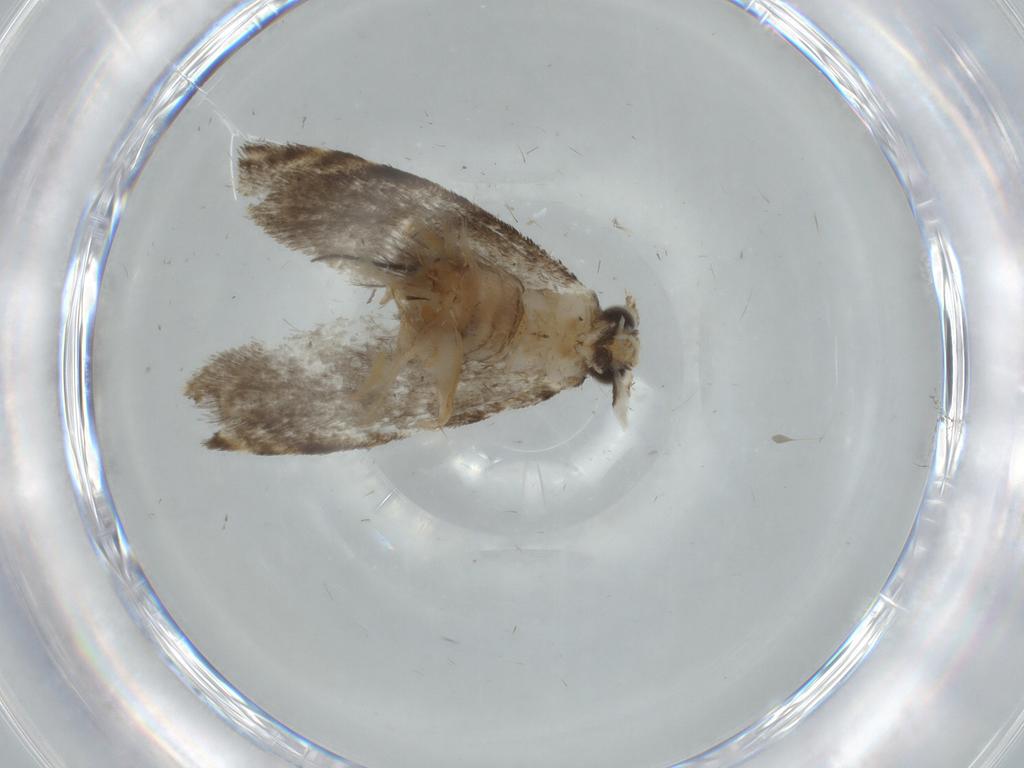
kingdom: Animalia
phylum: Arthropoda
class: Insecta
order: Lepidoptera
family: Tineidae
